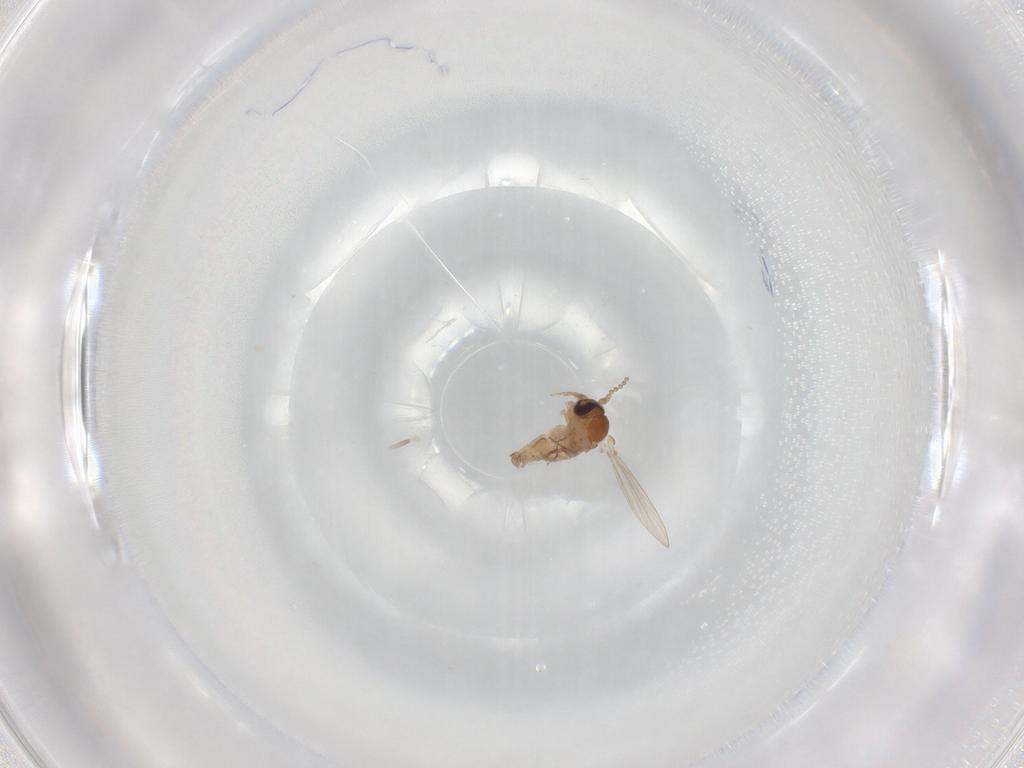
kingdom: Animalia
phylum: Arthropoda
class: Insecta
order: Diptera
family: Psychodidae
